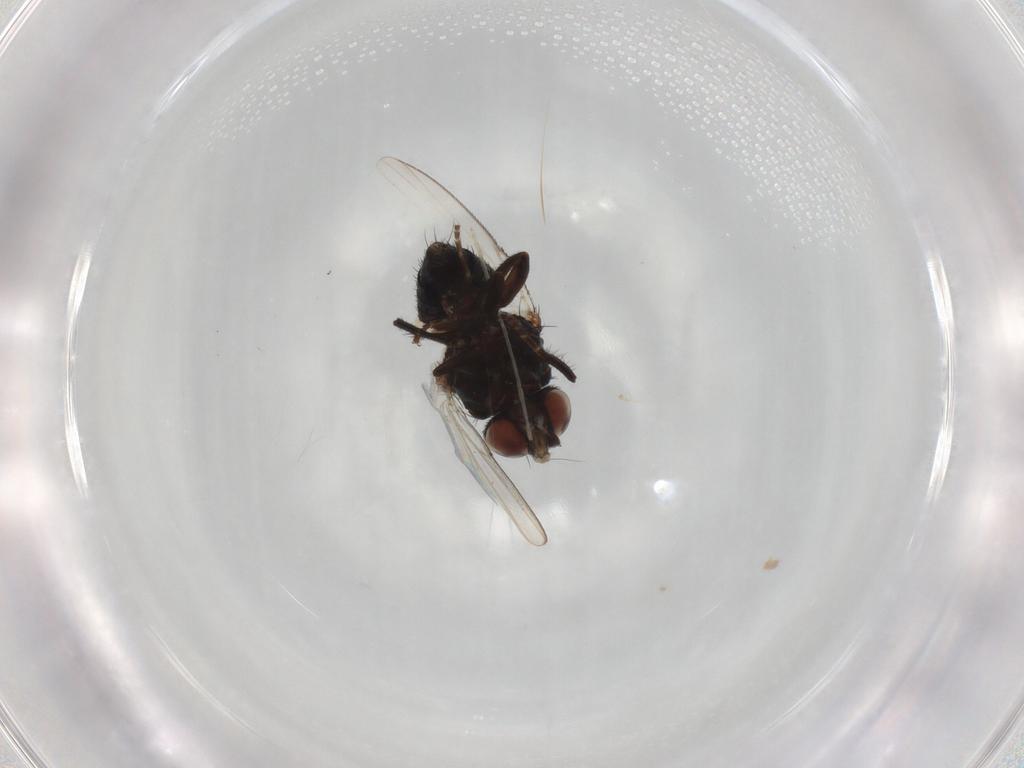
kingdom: Animalia
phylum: Arthropoda
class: Insecta
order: Diptera
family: Milichiidae
